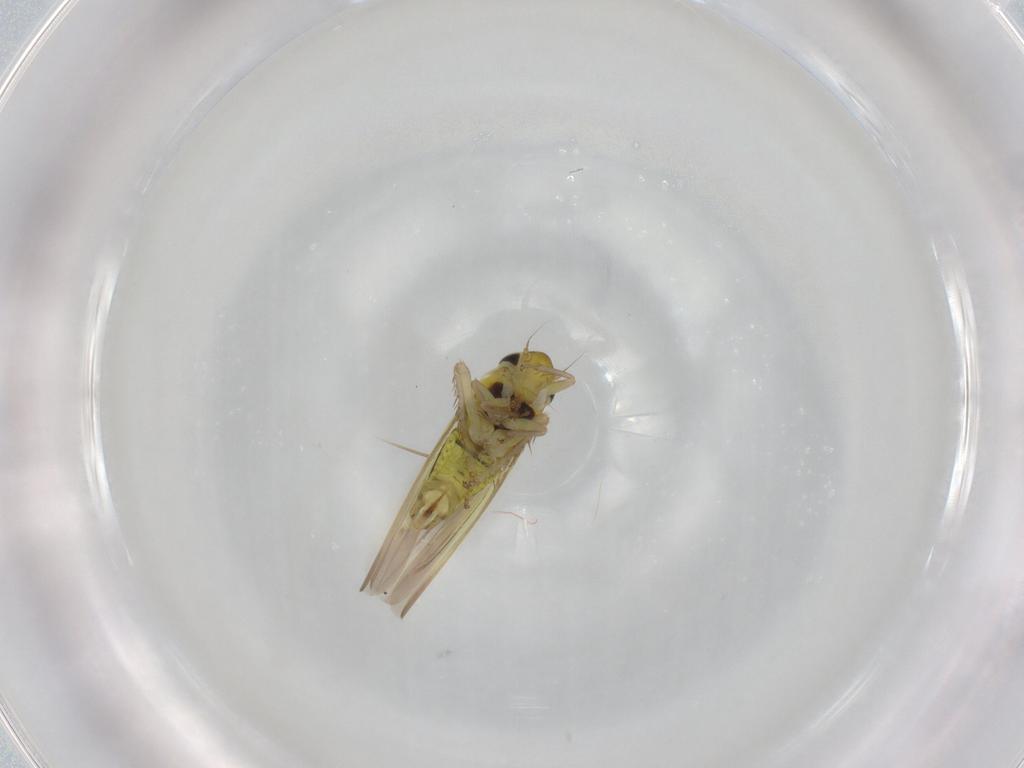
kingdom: Animalia
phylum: Arthropoda
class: Insecta
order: Hemiptera
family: Cicadellidae
